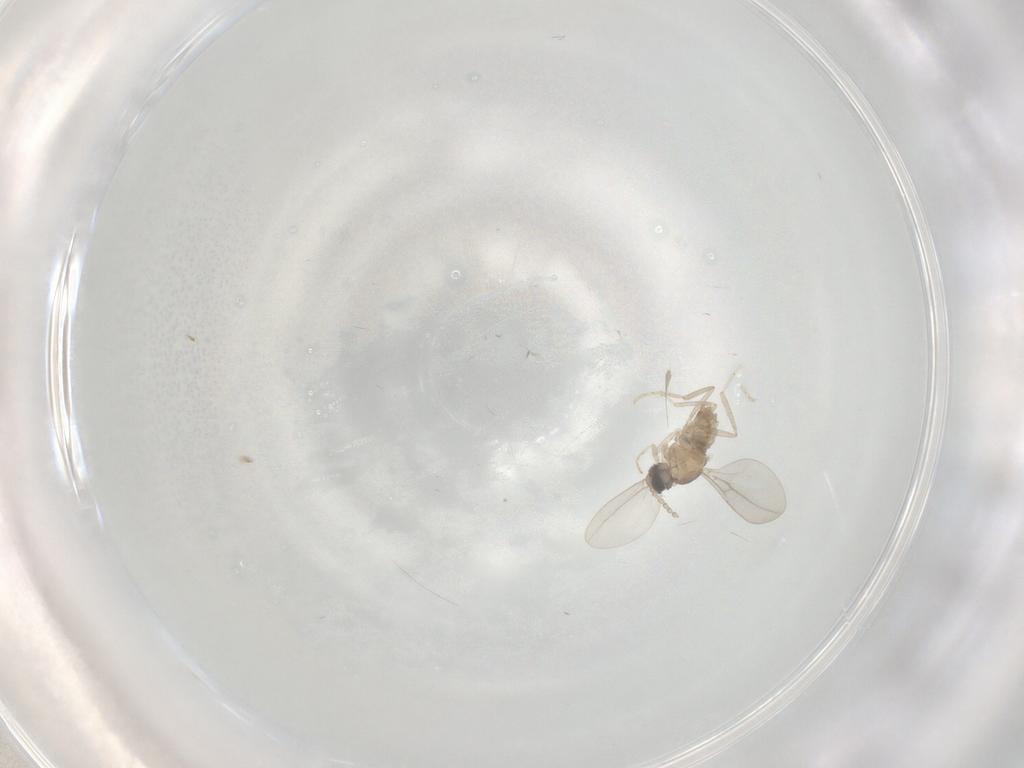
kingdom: Animalia
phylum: Arthropoda
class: Insecta
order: Diptera
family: Cecidomyiidae
